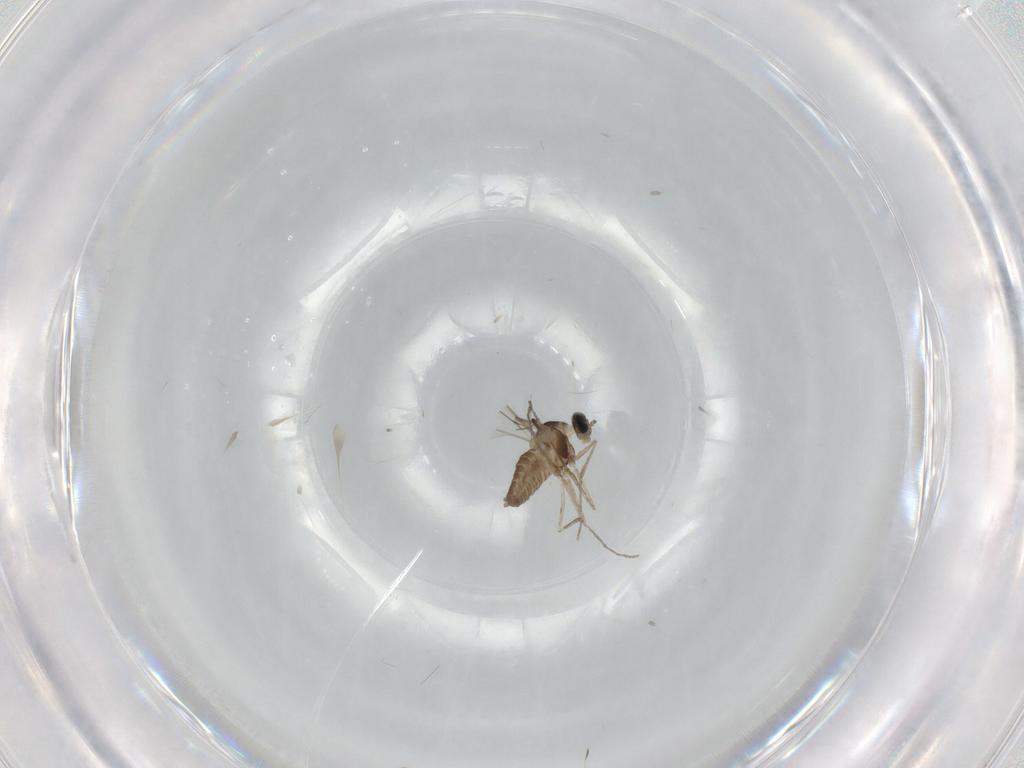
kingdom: Animalia
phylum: Arthropoda
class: Insecta
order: Diptera
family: Cecidomyiidae
